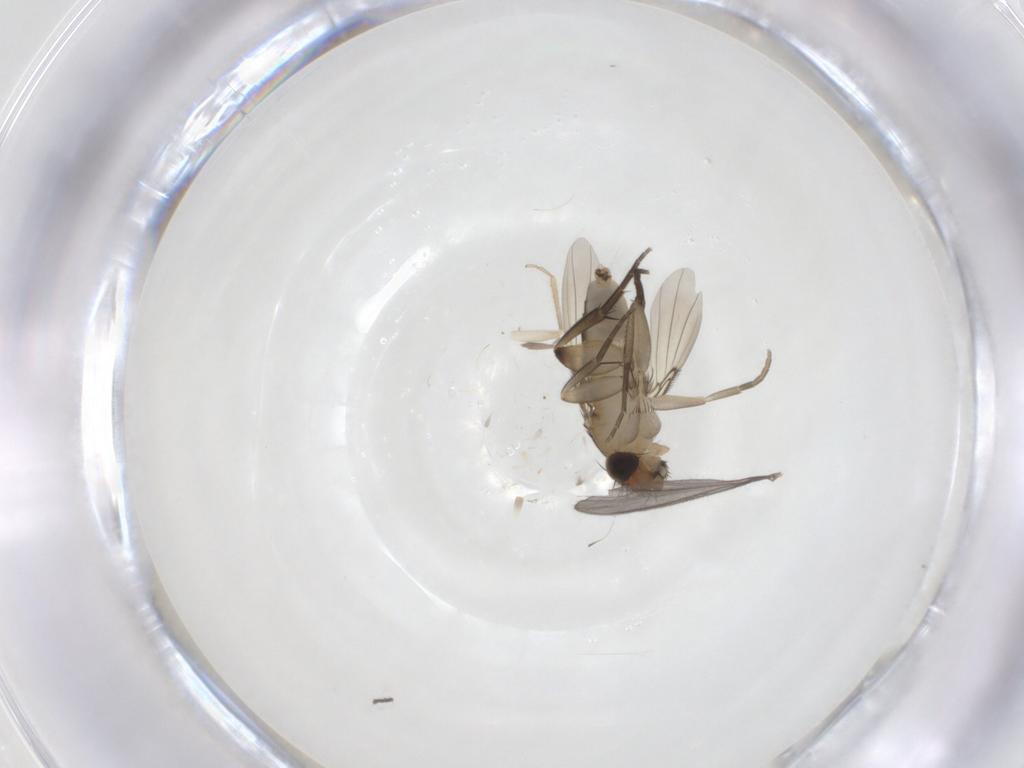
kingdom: Animalia
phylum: Arthropoda
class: Insecta
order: Diptera
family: Phoridae
